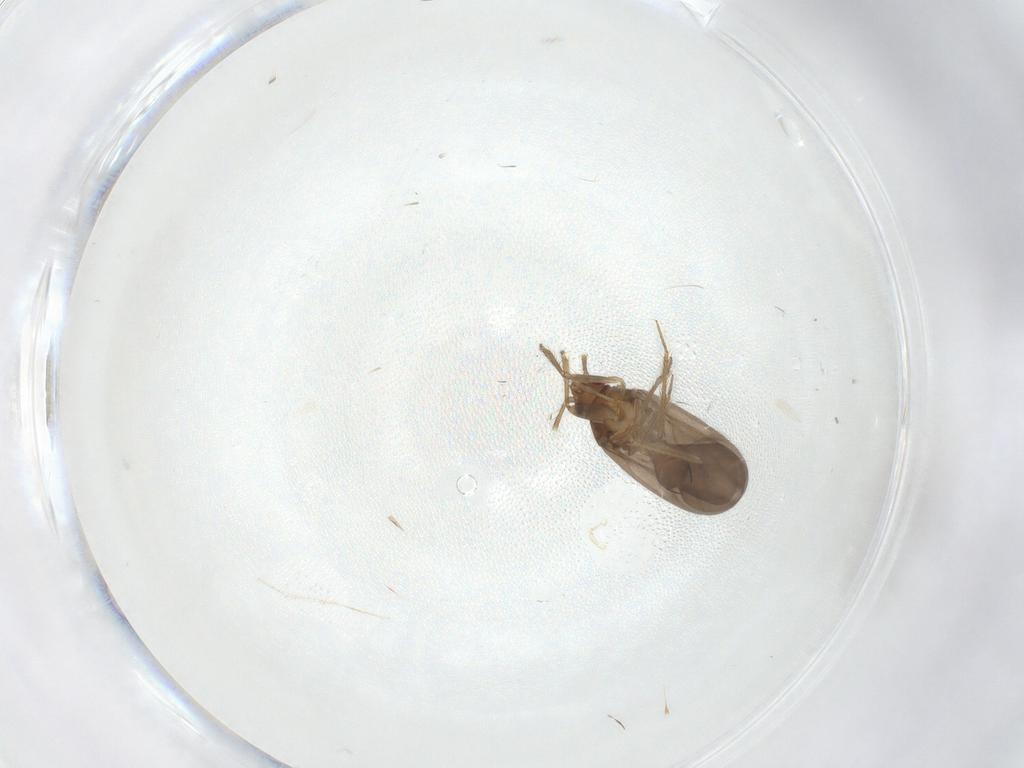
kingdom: Animalia
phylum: Arthropoda
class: Insecta
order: Hemiptera
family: Ceratocombidae
